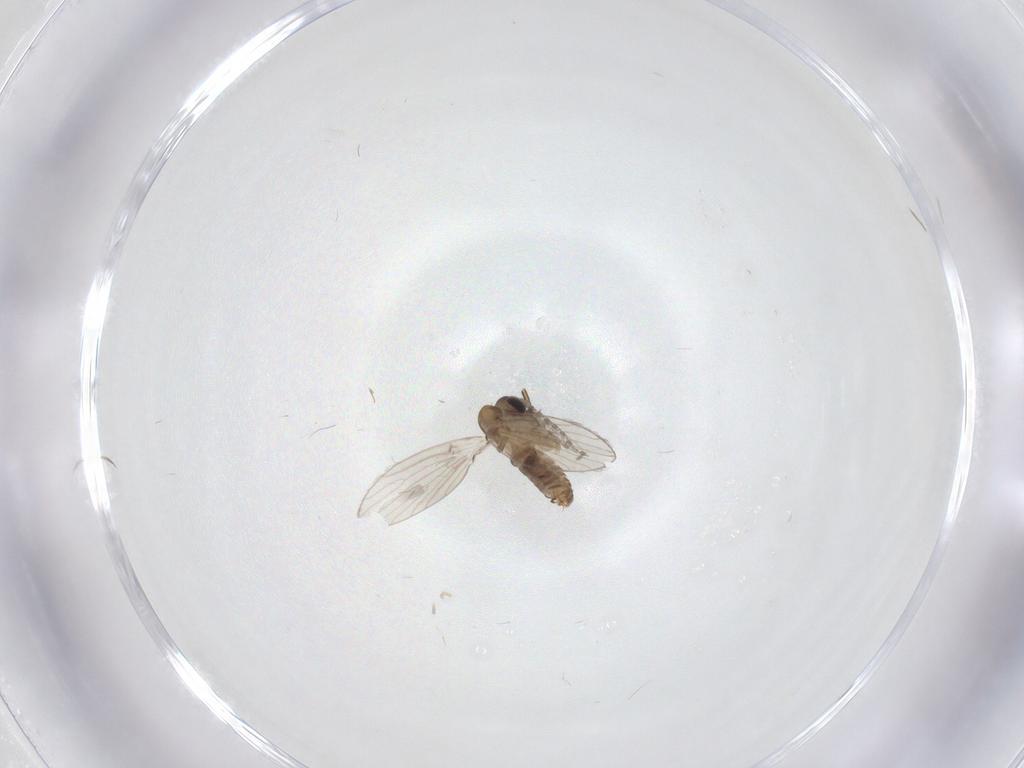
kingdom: Animalia
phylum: Arthropoda
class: Insecta
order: Diptera
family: Psychodidae
